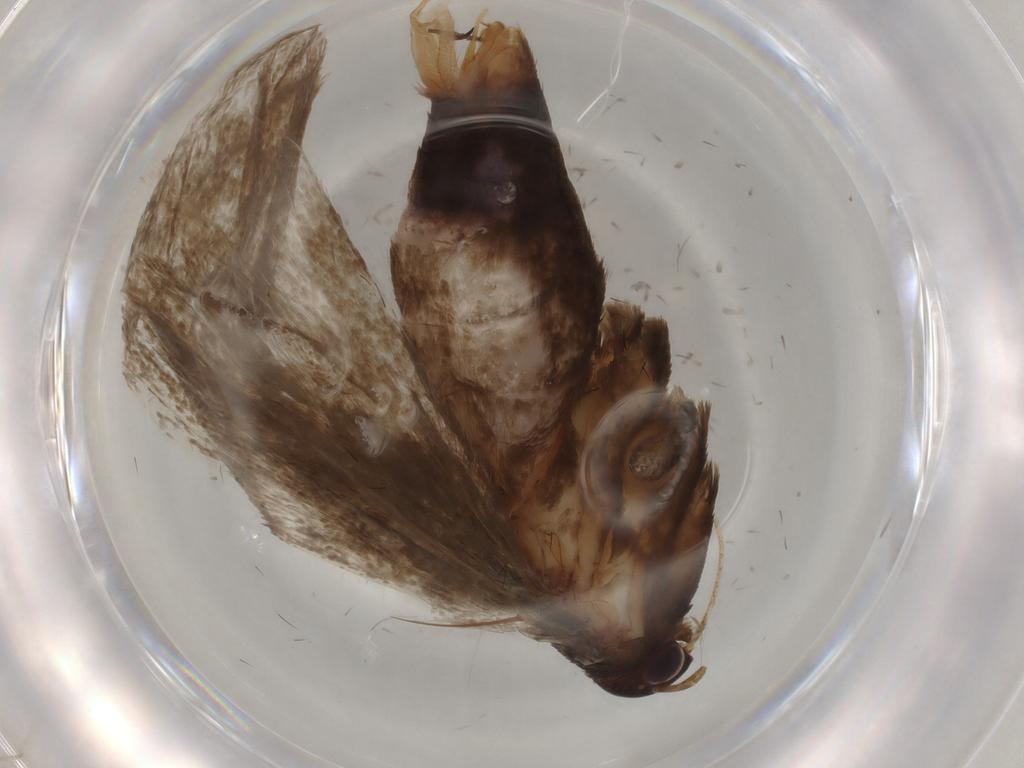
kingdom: Animalia
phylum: Arthropoda
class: Insecta
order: Lepidoptera
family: Gelechiidae
